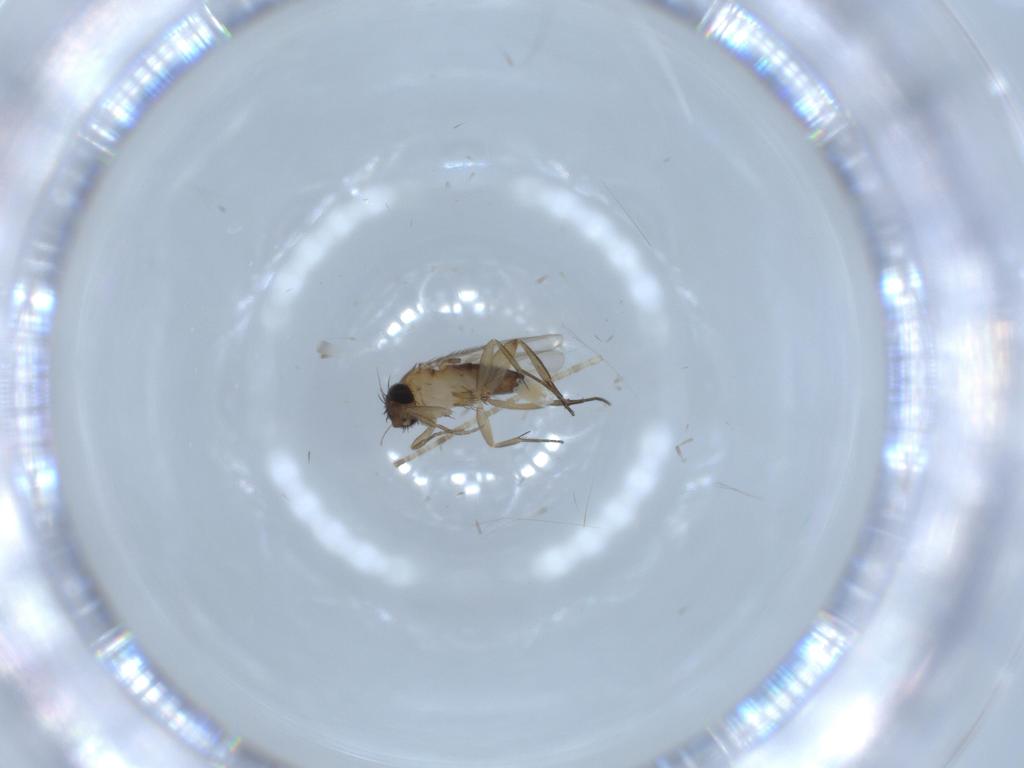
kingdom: Animalia
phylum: Arthropoda
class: Insecta
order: Diptera
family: Phoridae
